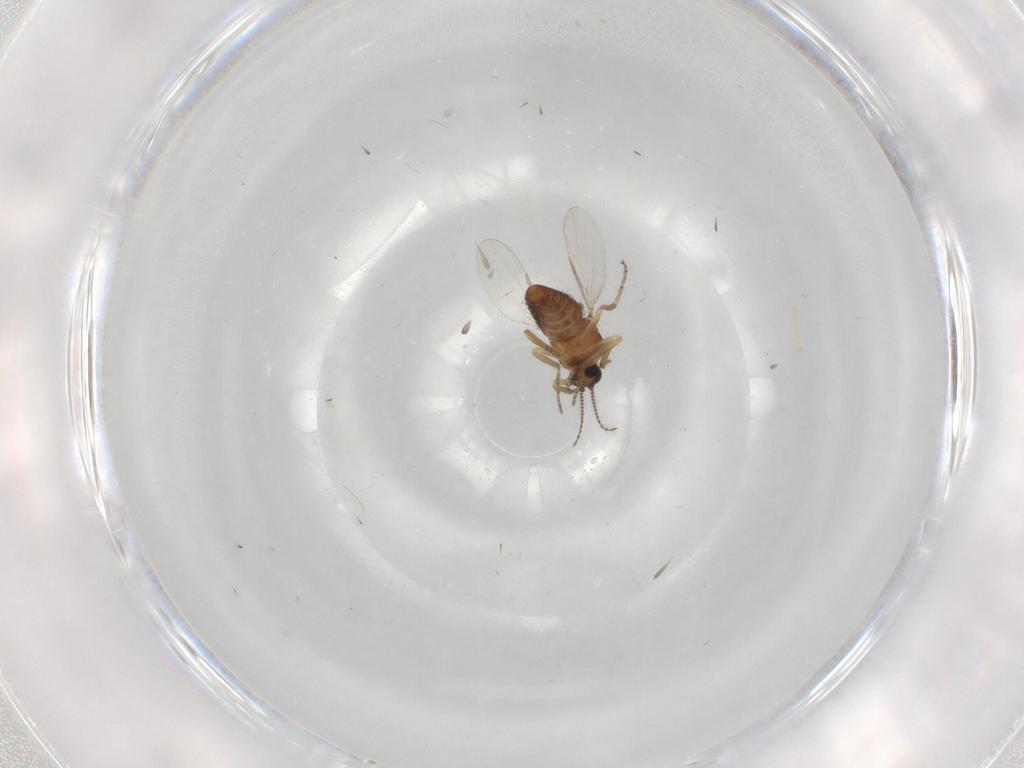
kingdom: Animalia
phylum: Arthropoda
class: Insecta
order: Diptera
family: Ceratopogonidae
